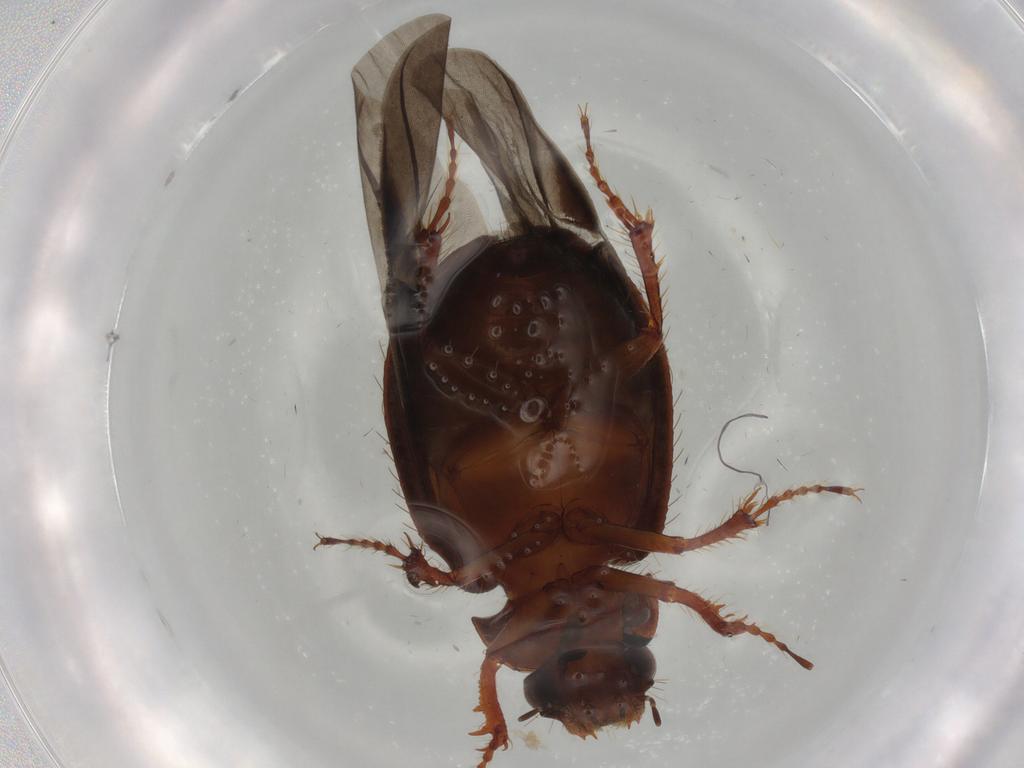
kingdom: Animalia
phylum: Arthropoda
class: Insecta
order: Coleoptera
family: Hybosoridae
